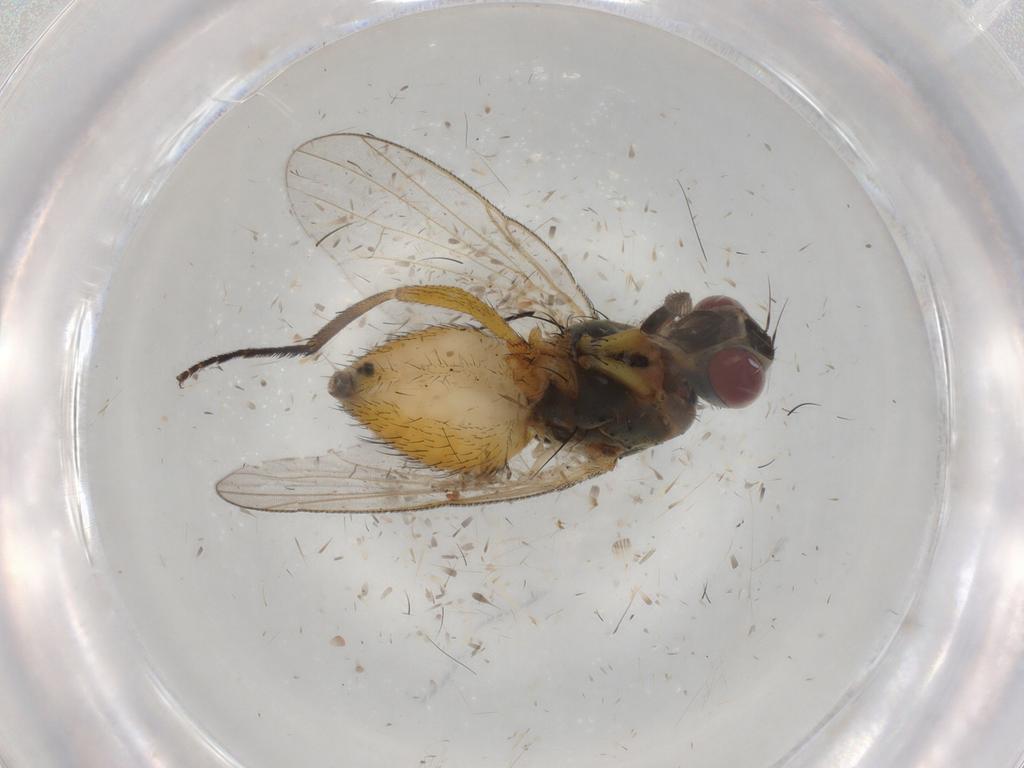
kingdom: Animalia
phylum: Arthropoda
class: Insecta
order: Diptera
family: Muscidae
